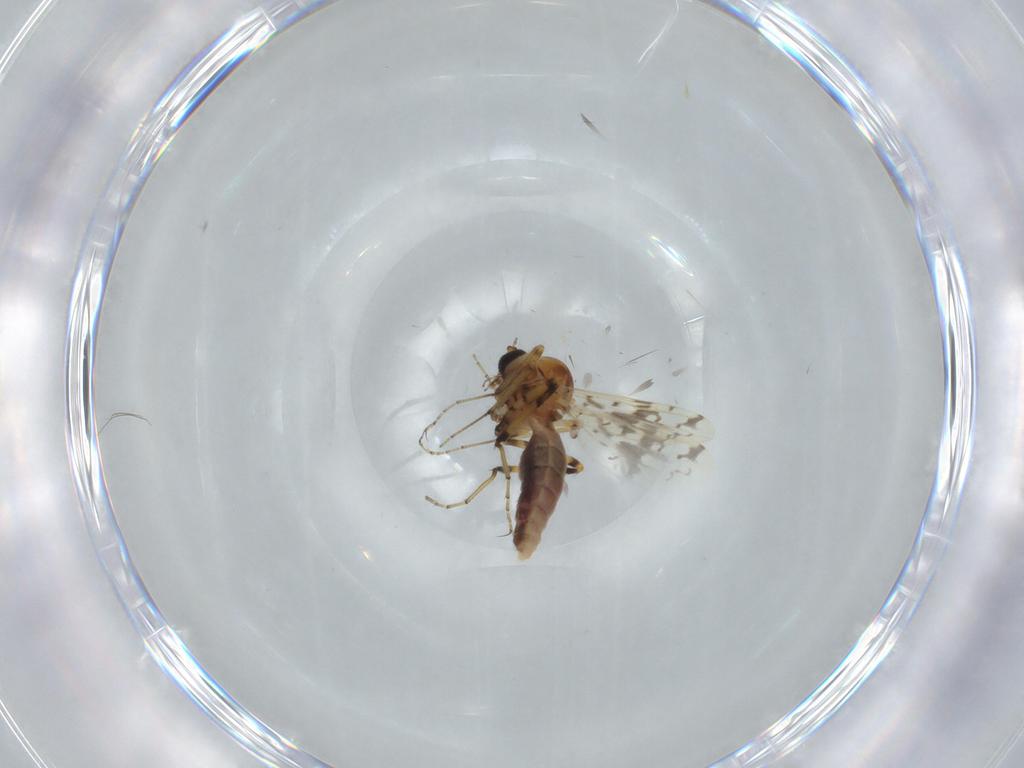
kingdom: Animalia
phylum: Arthropoda
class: Insecta
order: Diptera
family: Ceratopogonidae
